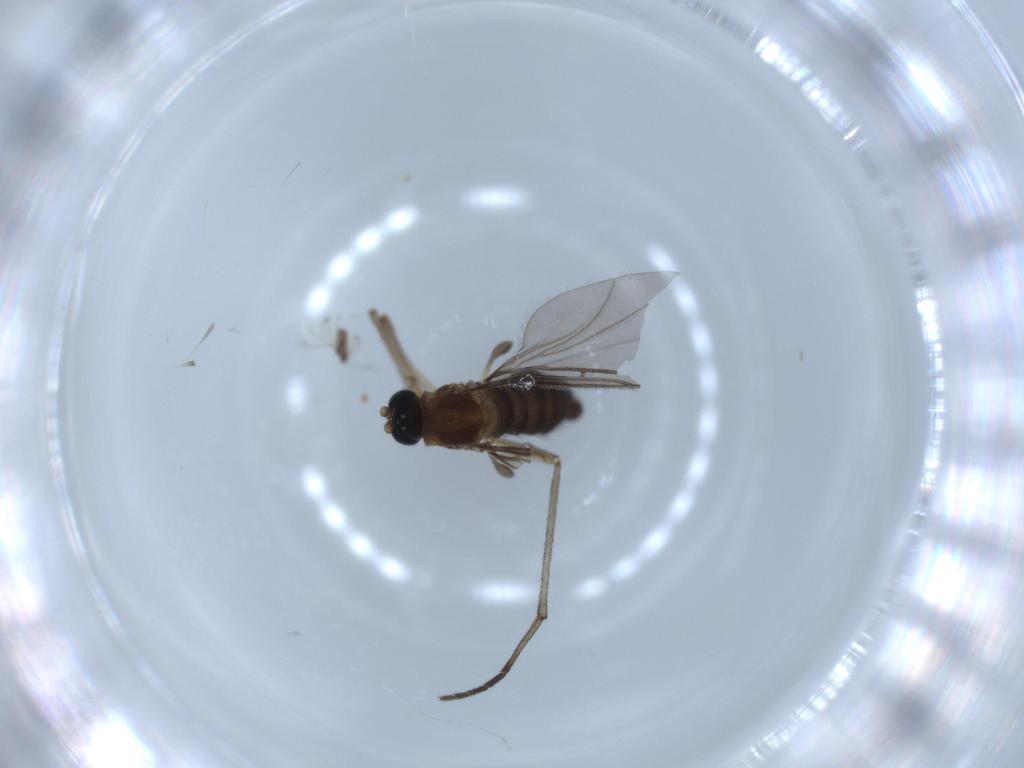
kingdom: Animalia
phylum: Arthropoda
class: Insecta
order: Diptera
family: Sciaridae
